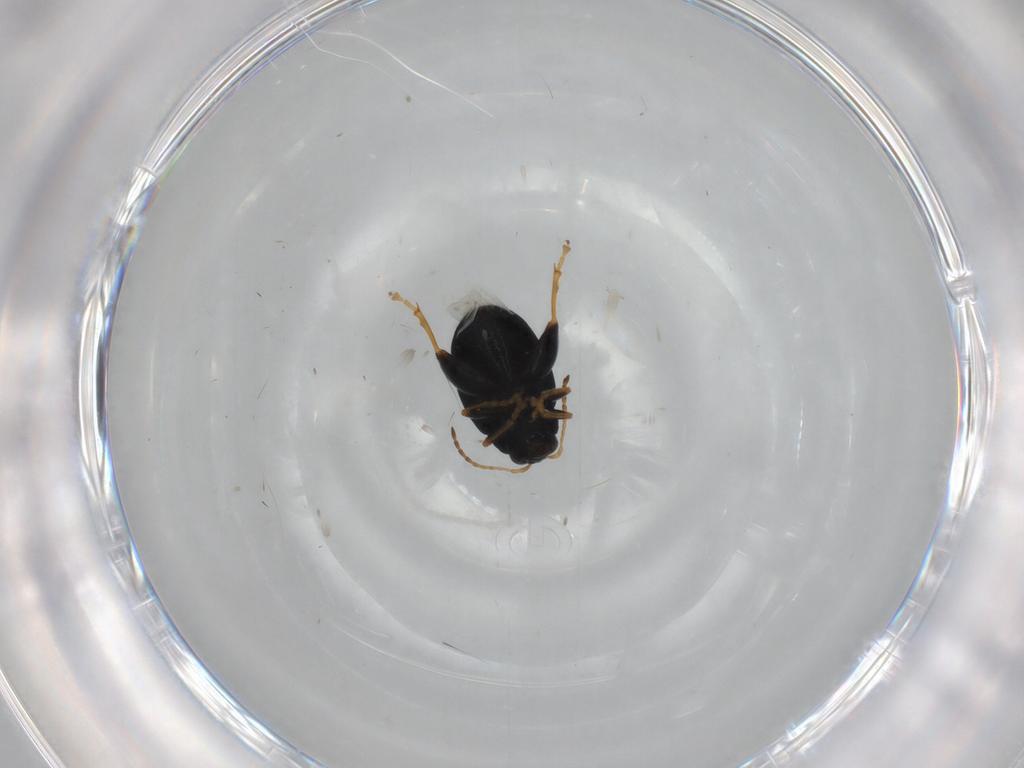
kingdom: Animalia
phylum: Arthropoda
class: Insecta
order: Coleoptera
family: Chrysomelidae
